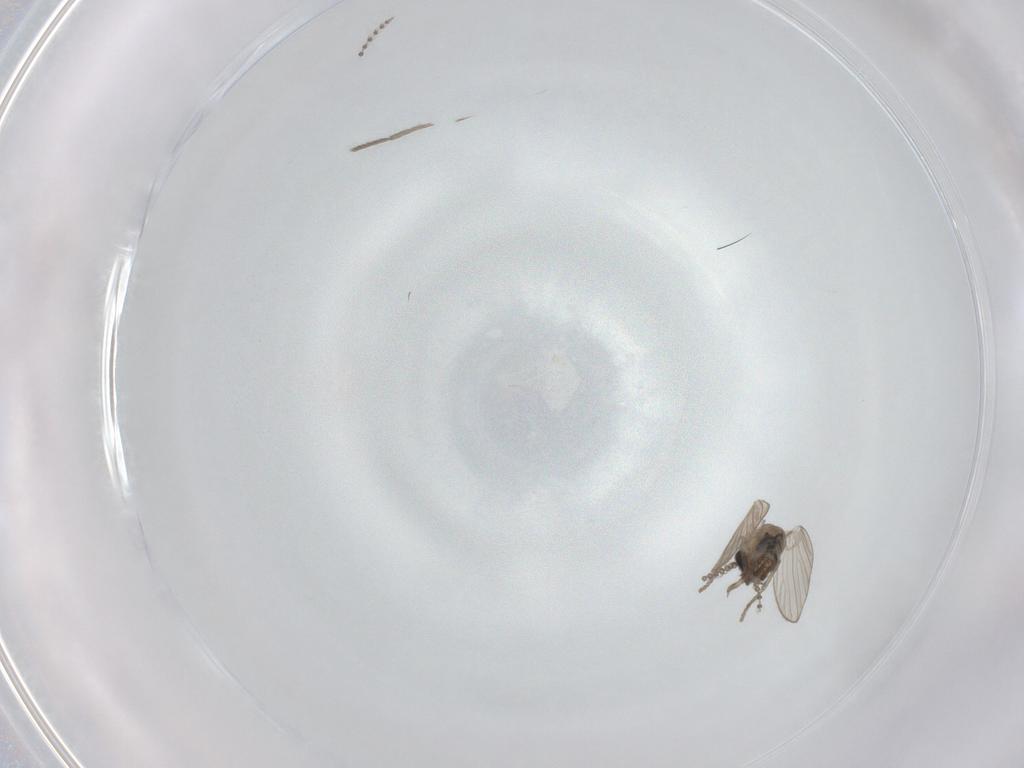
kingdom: Animalia
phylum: Arthropoda
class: Insecta
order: Diptera
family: Psychodidae
